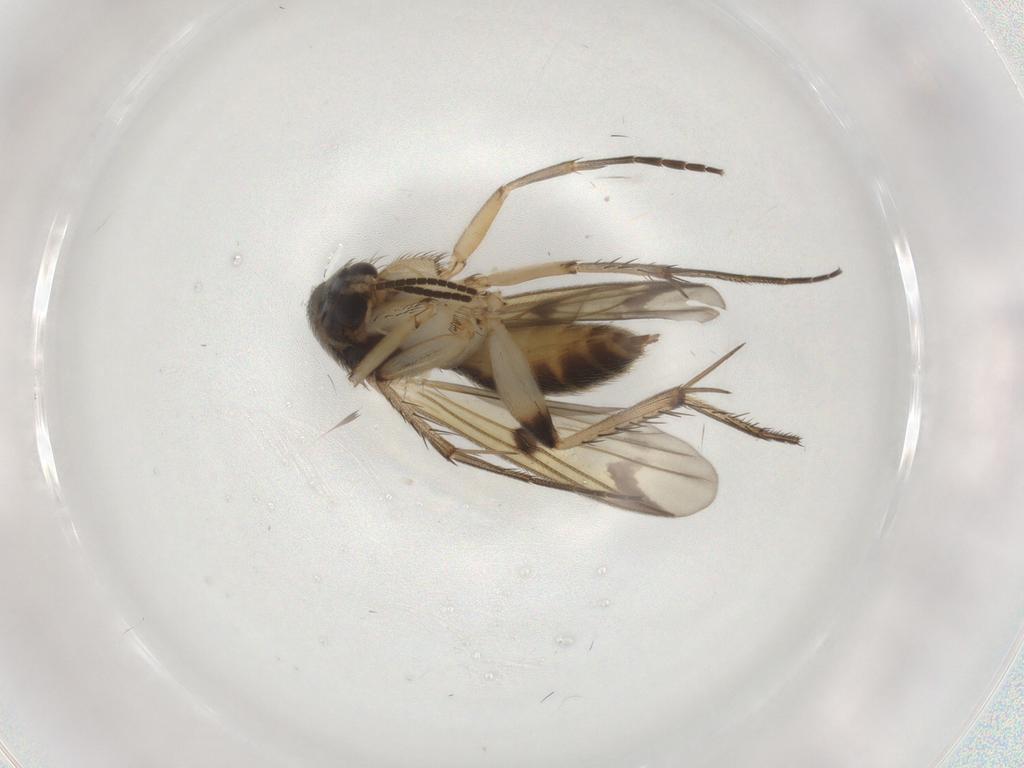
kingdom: Animalia
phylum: Arthropoda
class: Insecta
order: Diptera
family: Mycetophilidae
